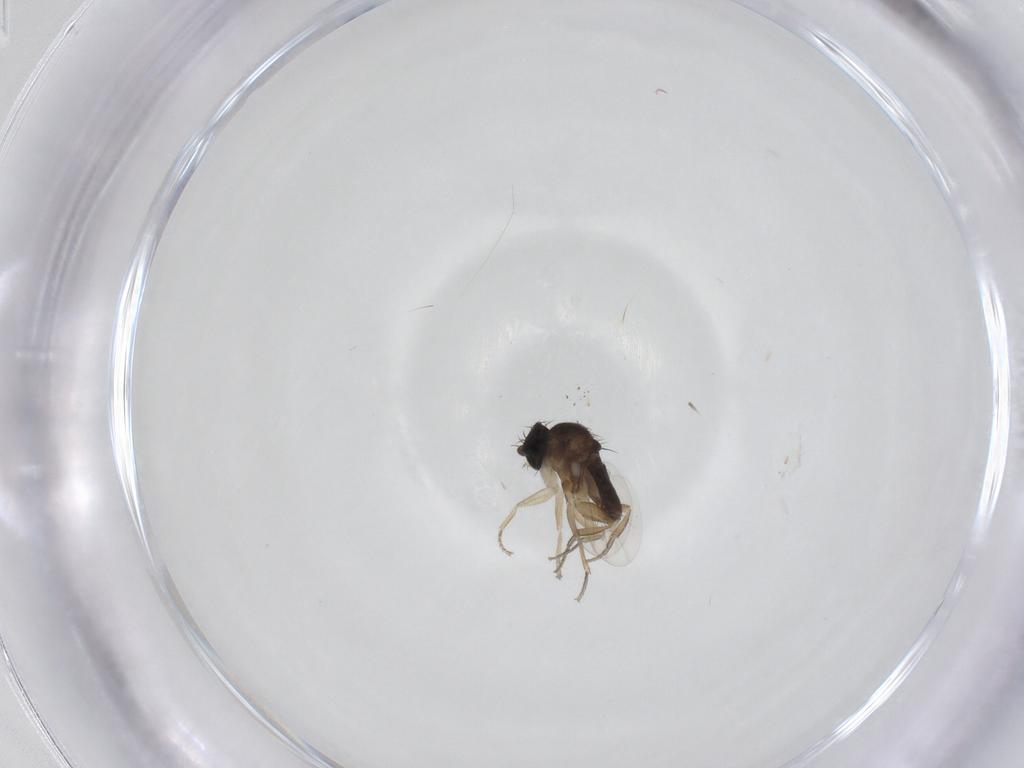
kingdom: Animalia
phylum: Arthropoda
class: Insecta
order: Diptera
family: Phoridae
